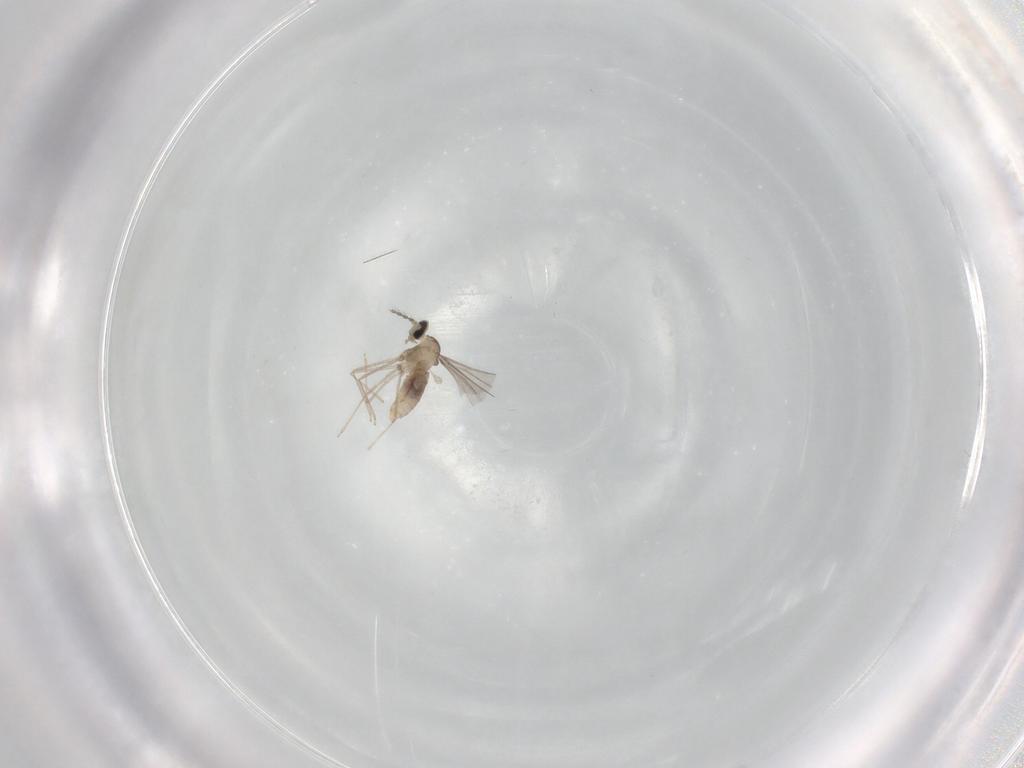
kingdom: Animalia
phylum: Arthropoda
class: Insecta
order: Diptera
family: Cecidomyiidae
